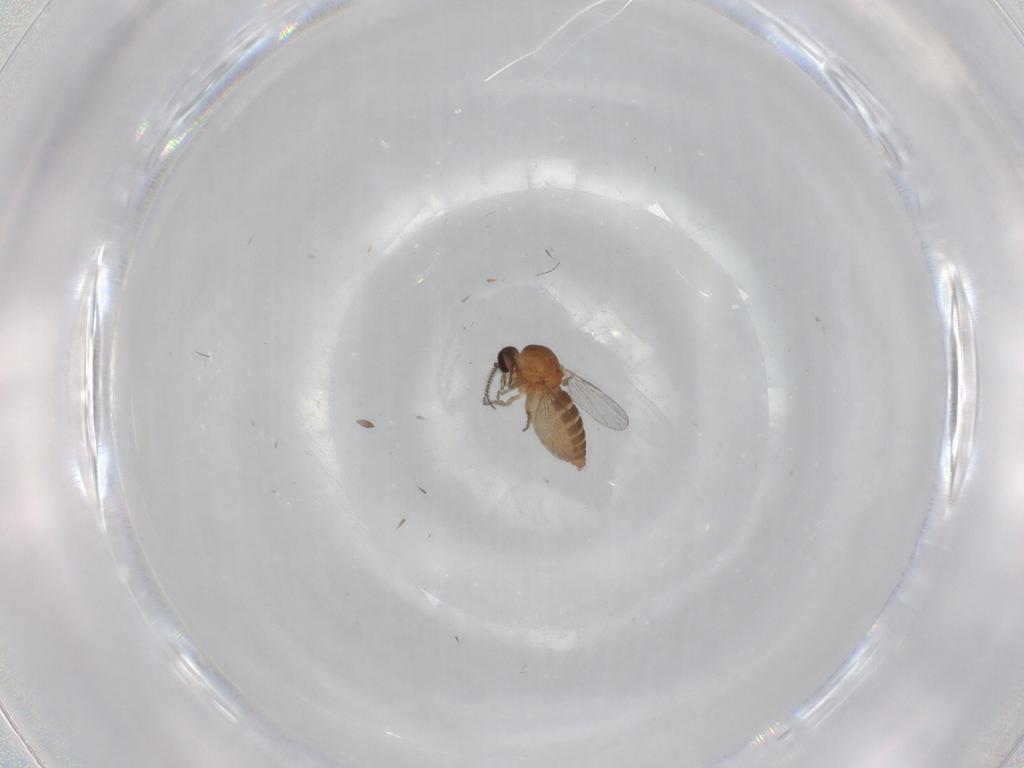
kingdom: Animalia
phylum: Arthropoda
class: Insecta
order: Diptera
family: Ceratopogonidae
